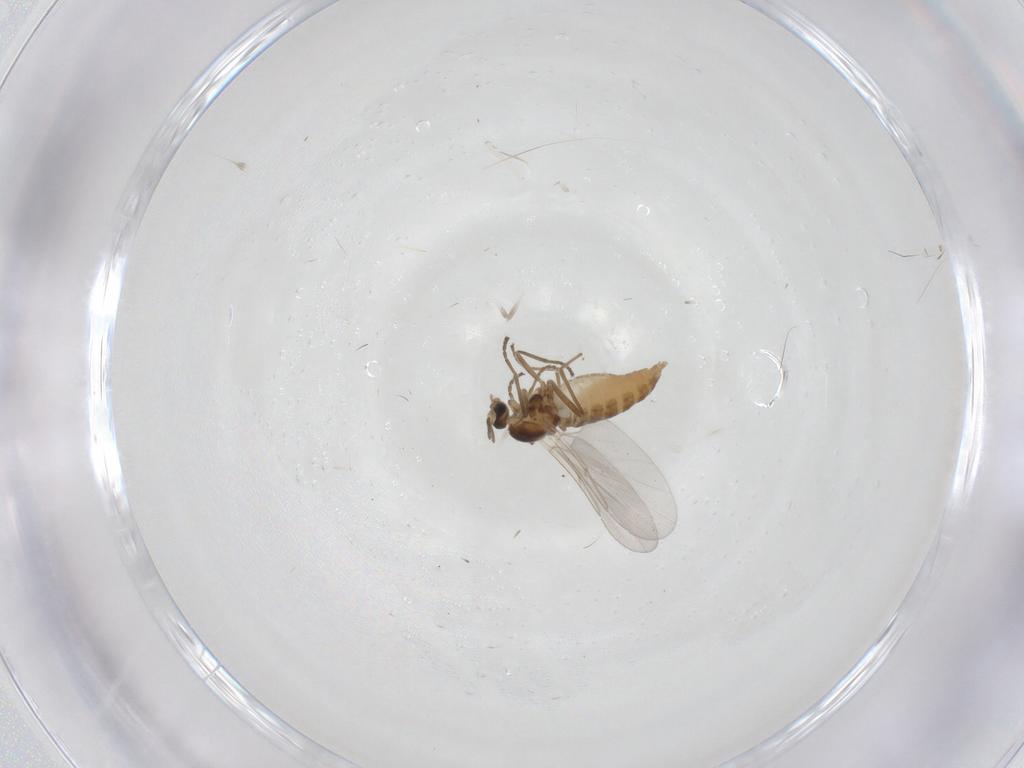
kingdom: Animalia
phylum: Arthropoda
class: Insecta
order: Diptera
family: Cecidomyiidae
